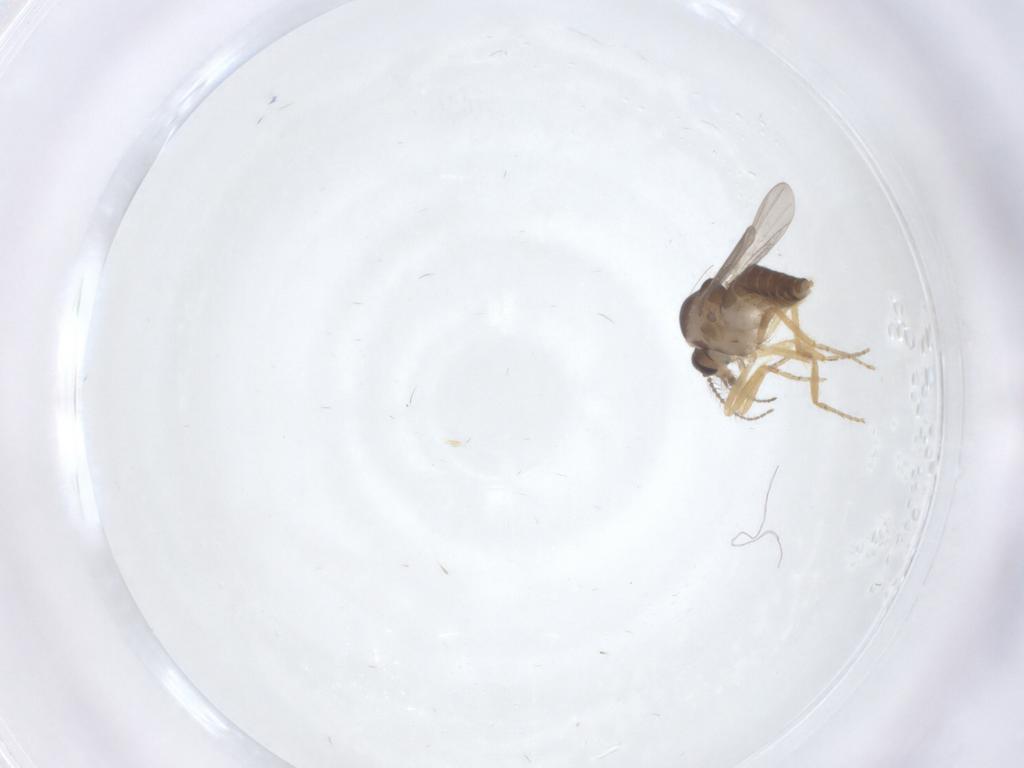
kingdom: Animalia
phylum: Arthropoda
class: Insecta
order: Diptera
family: Ceratopogonidae
